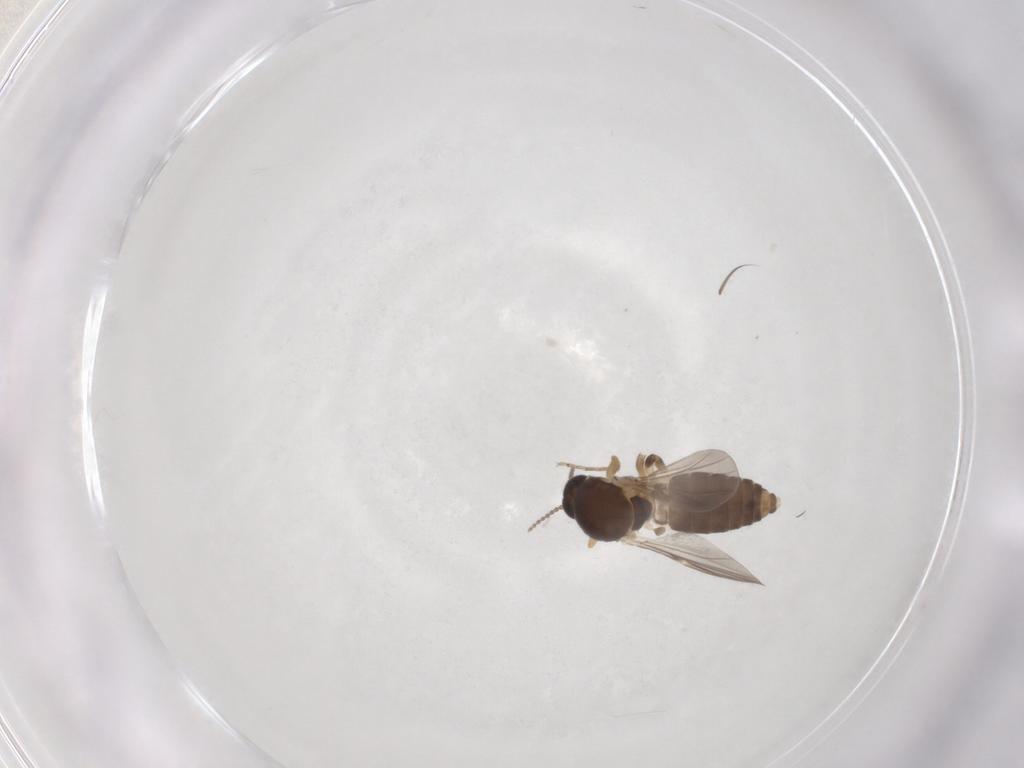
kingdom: Animalia
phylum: Arthropoda
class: Insecta
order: Diptera
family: Ceratopogonidae
